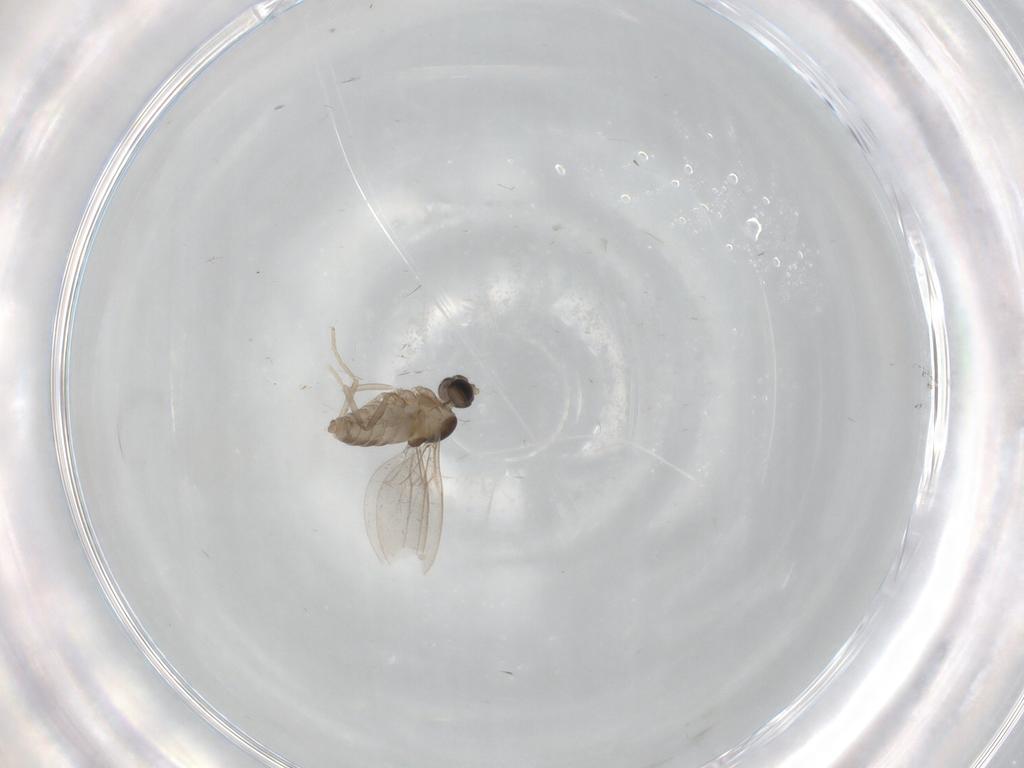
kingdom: Animalia
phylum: Arthropoda
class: Insecta
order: Diptera
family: Cecidomyiidae
